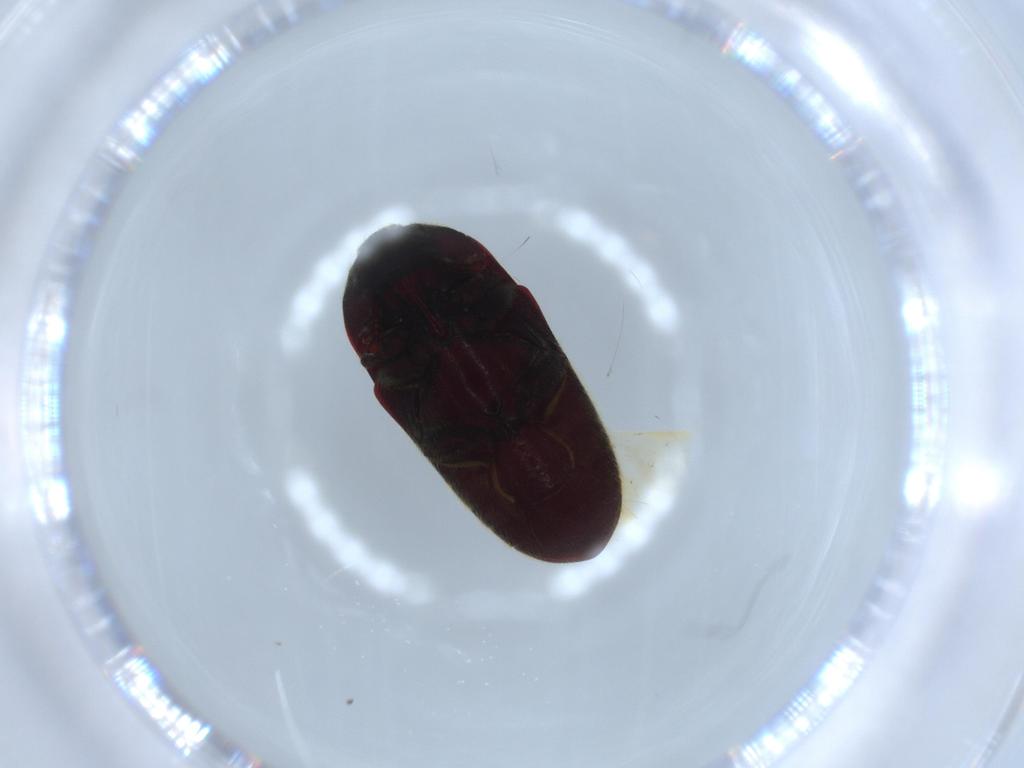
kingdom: Animalia
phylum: Arthropoda
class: Insecta
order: Coleoptera
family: Throscidae
